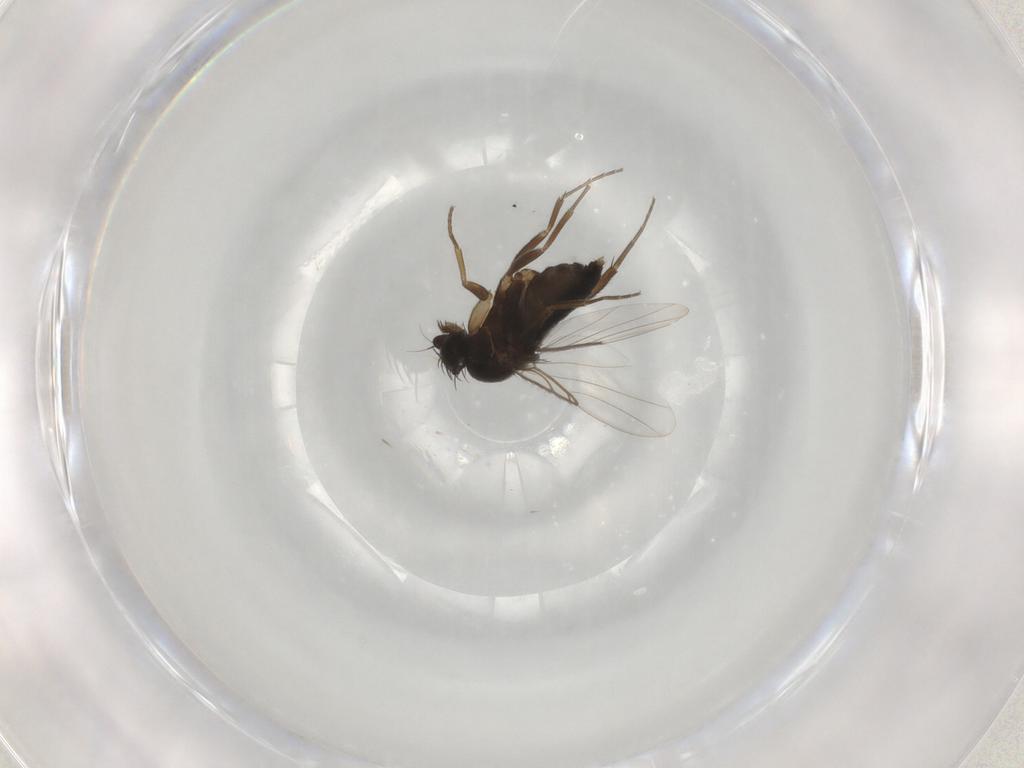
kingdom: Animalia
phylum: Arthropoda
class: Insecta
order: Diptera
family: Phoridae
